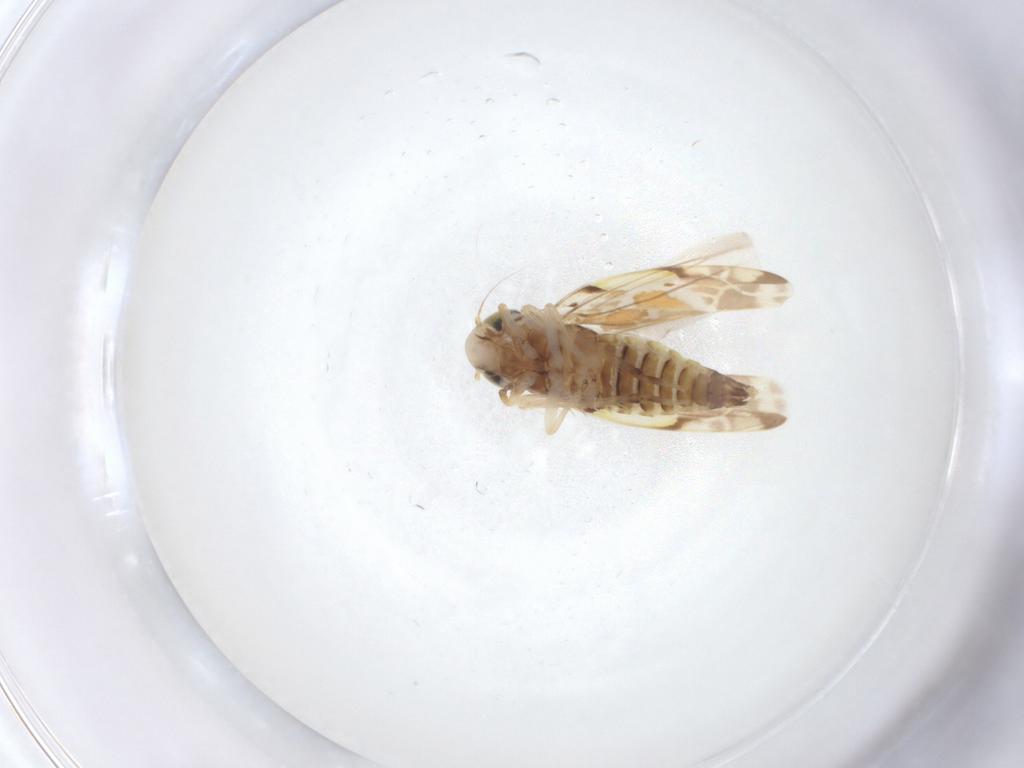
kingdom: Animalia
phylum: Arthropoda
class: Insecta
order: Hemiptera
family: Cicadellidae
